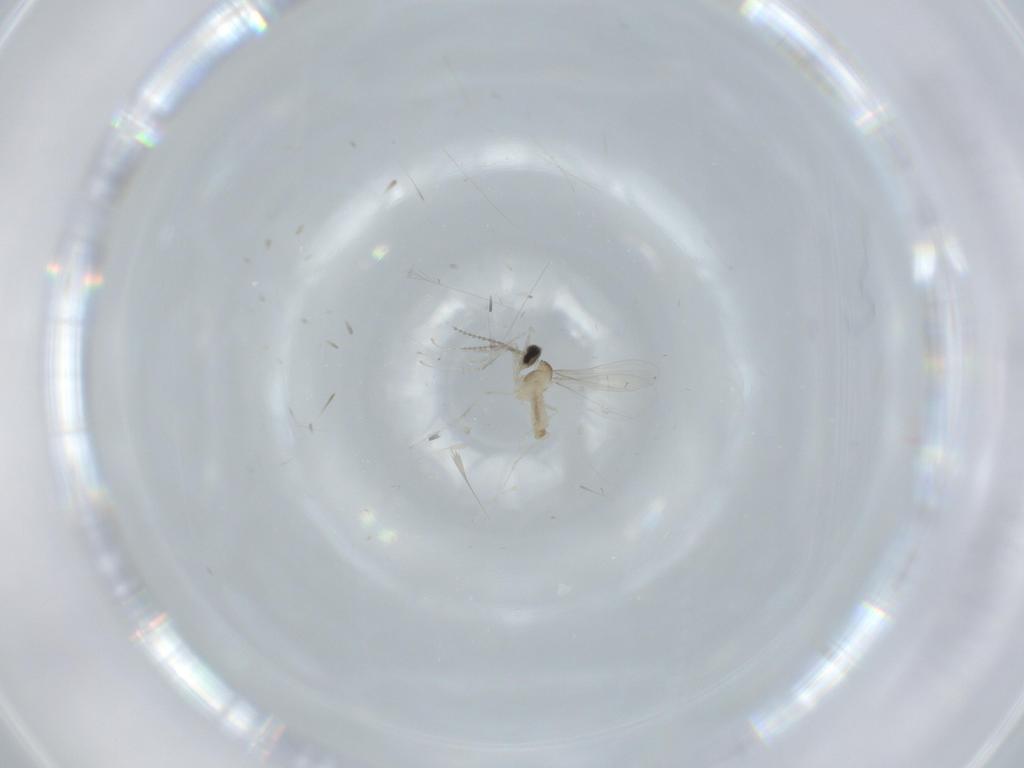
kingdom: Animalia
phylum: Arthropoda
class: Insecta
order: Diptera
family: Cecidomyiidae
